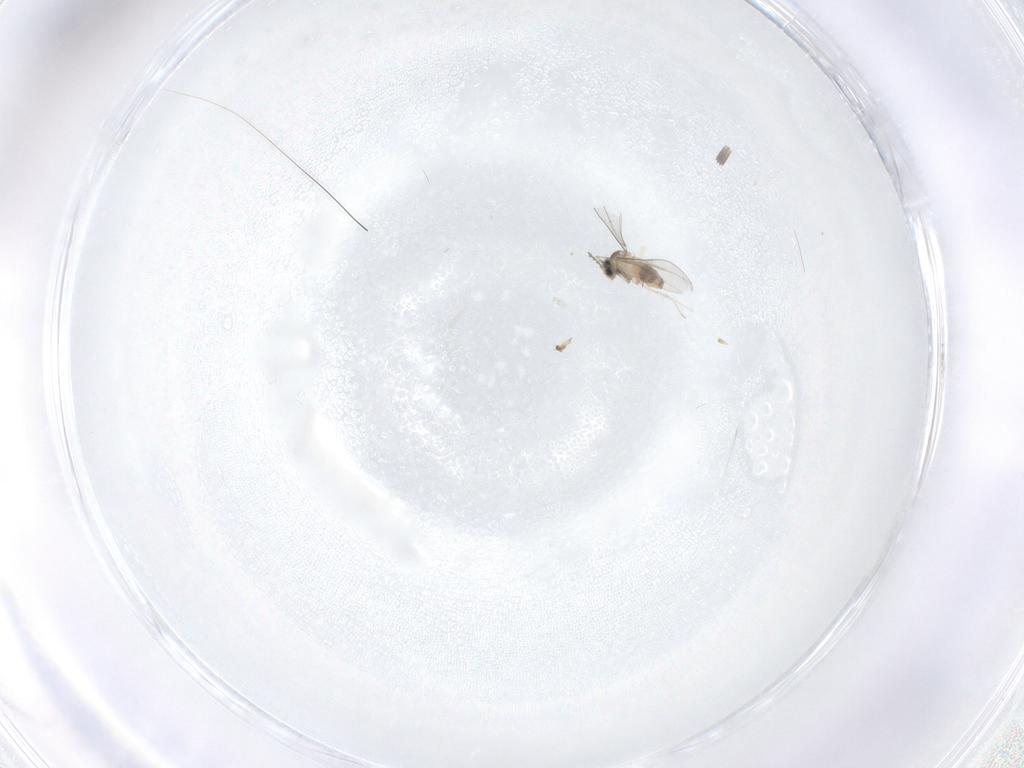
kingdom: Animalia
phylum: Arthropoda
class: Insecta
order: Diptera
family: Cecidomyiidae
